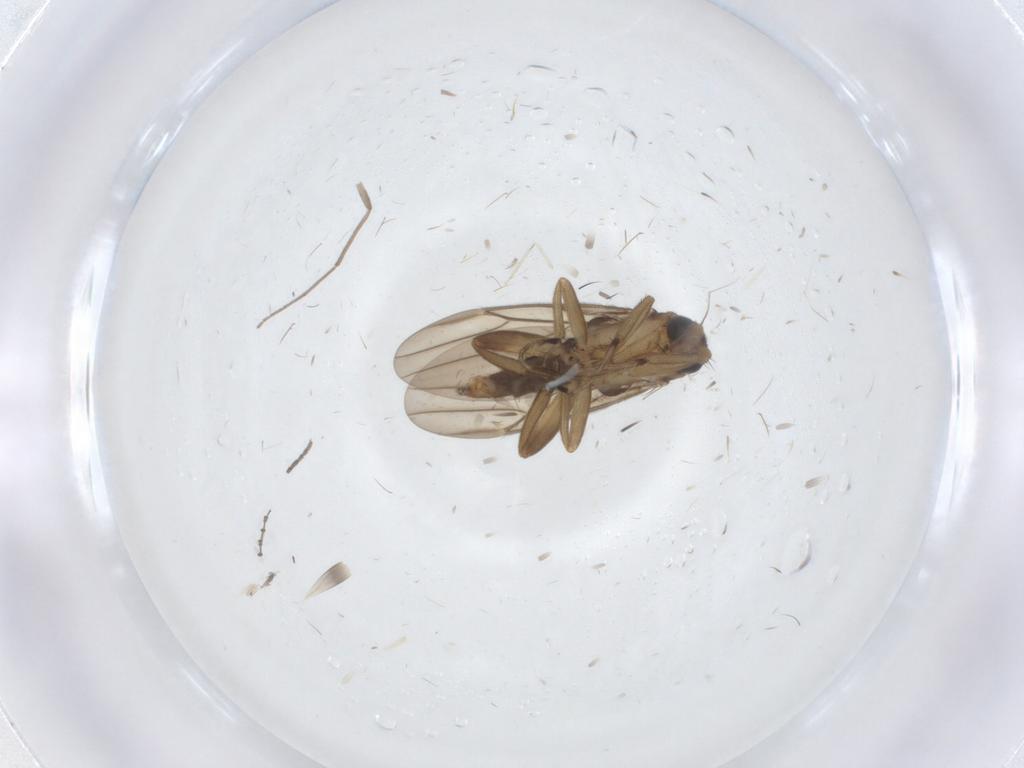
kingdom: Animalia
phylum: Arthropoda
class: Insecta
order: Diptera
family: Phoridae
